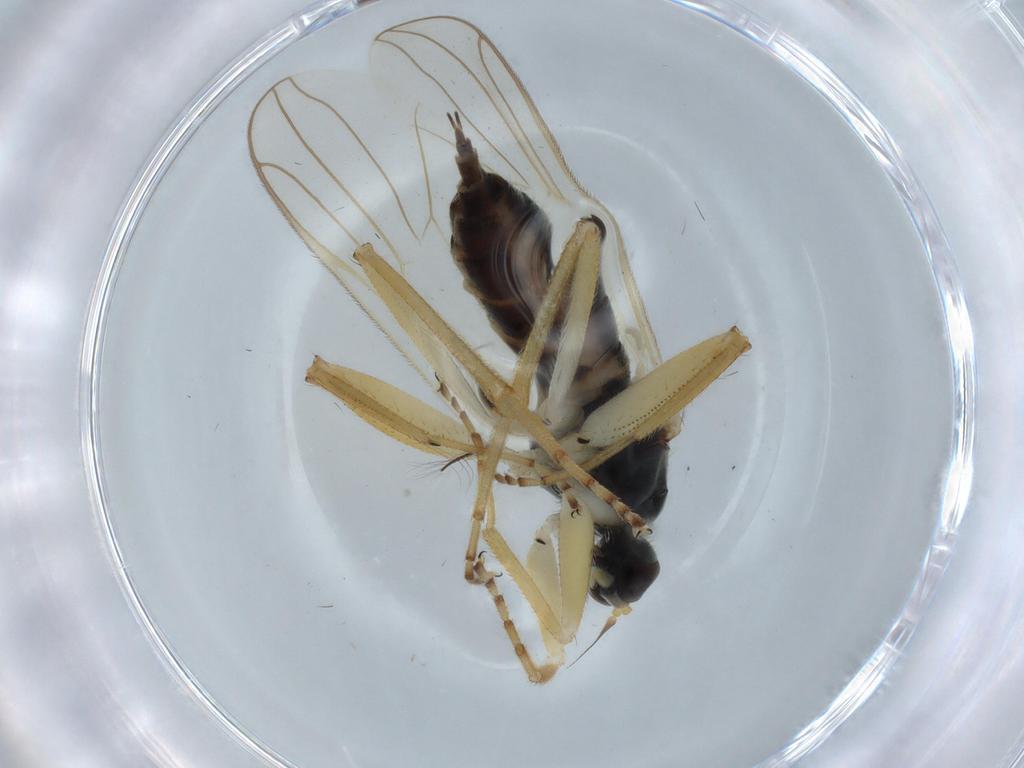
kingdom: Animalia
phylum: Arthropoda
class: Insecta
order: Diptera
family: Hybotidae
